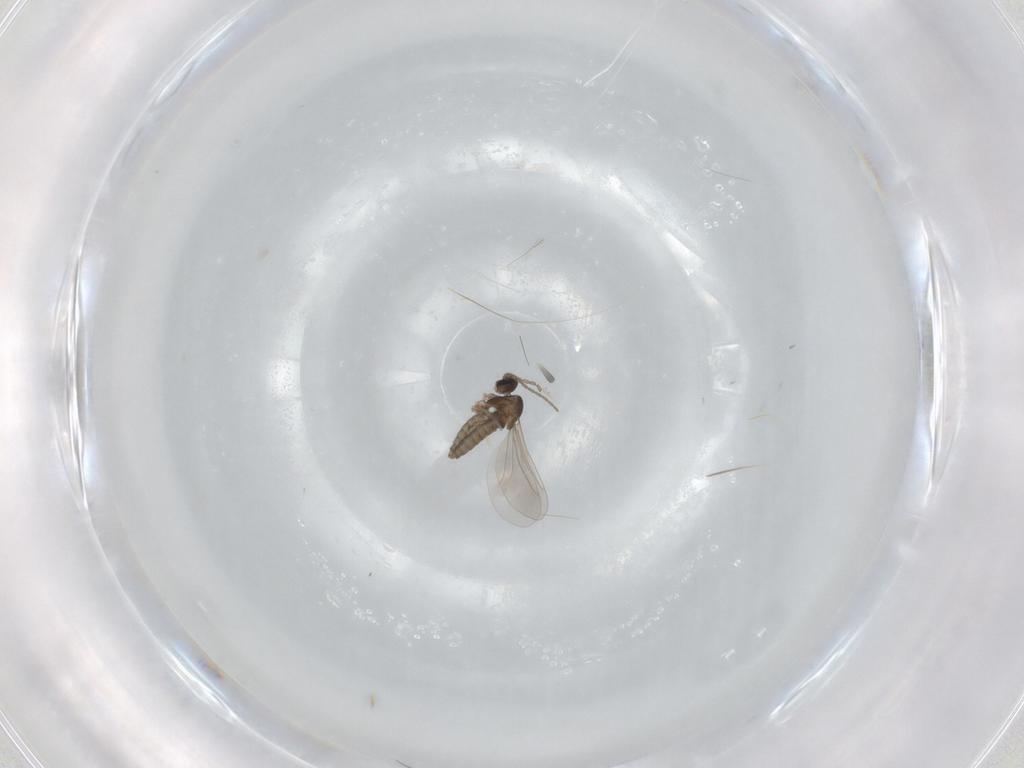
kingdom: Animalia
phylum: Arthropoda
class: Insecta
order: Diptera
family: Cecidomyiidae
